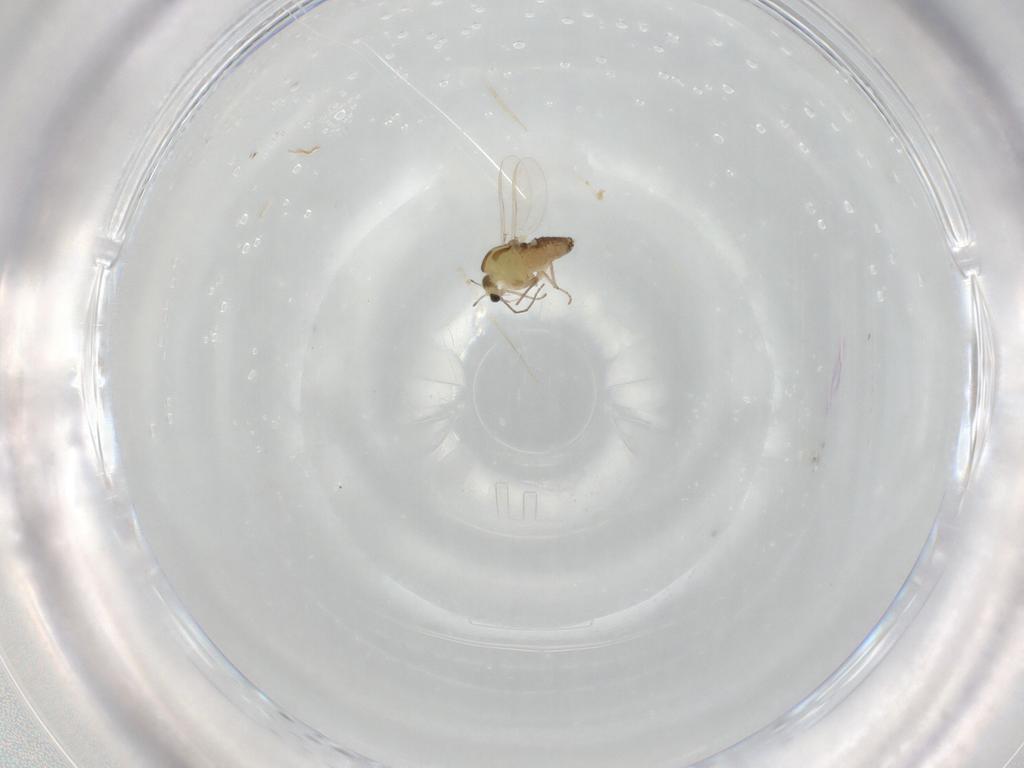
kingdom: Animalia
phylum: Arthropoda
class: Insecta
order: Diptera
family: Chironomidae
